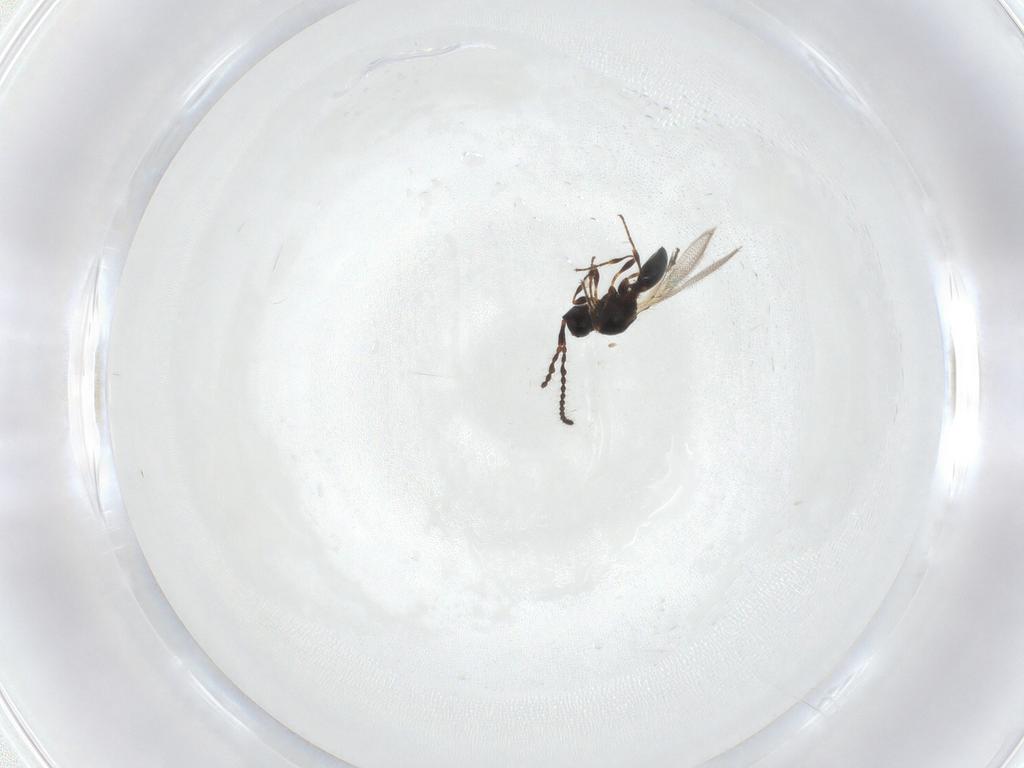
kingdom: Animalia
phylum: Arthropoda
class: Insecta
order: Hymenoptera
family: Diapriidae
